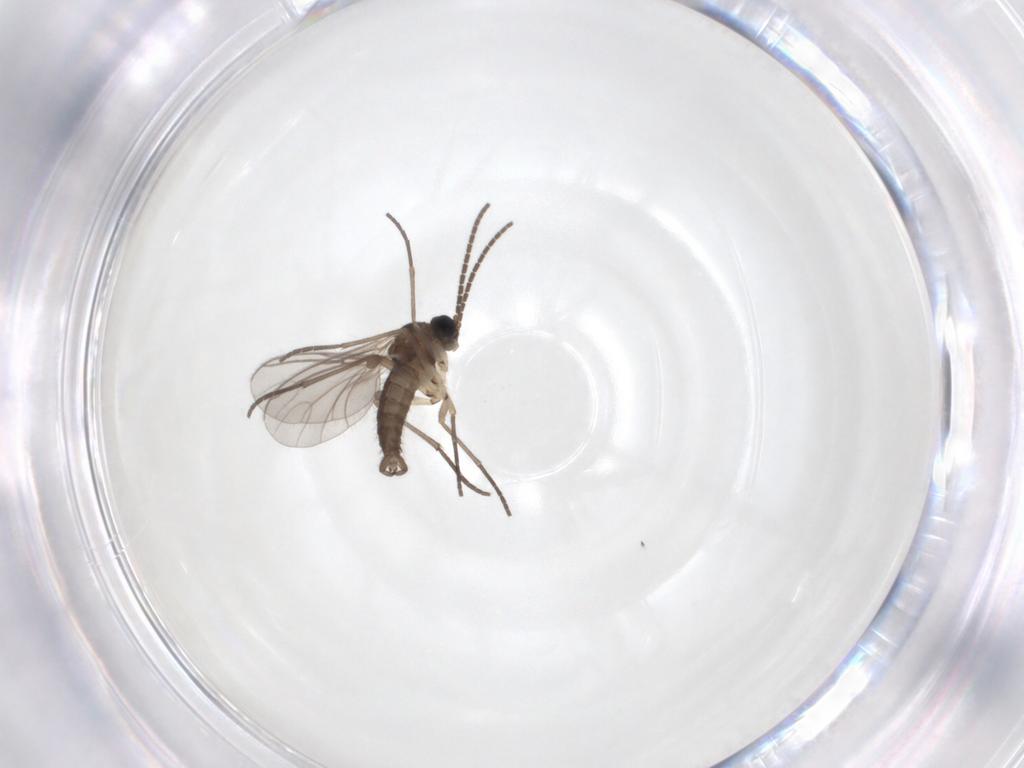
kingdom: Animalia
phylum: Arthropoda
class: Insecta
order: Diptera
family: Sciaridae
